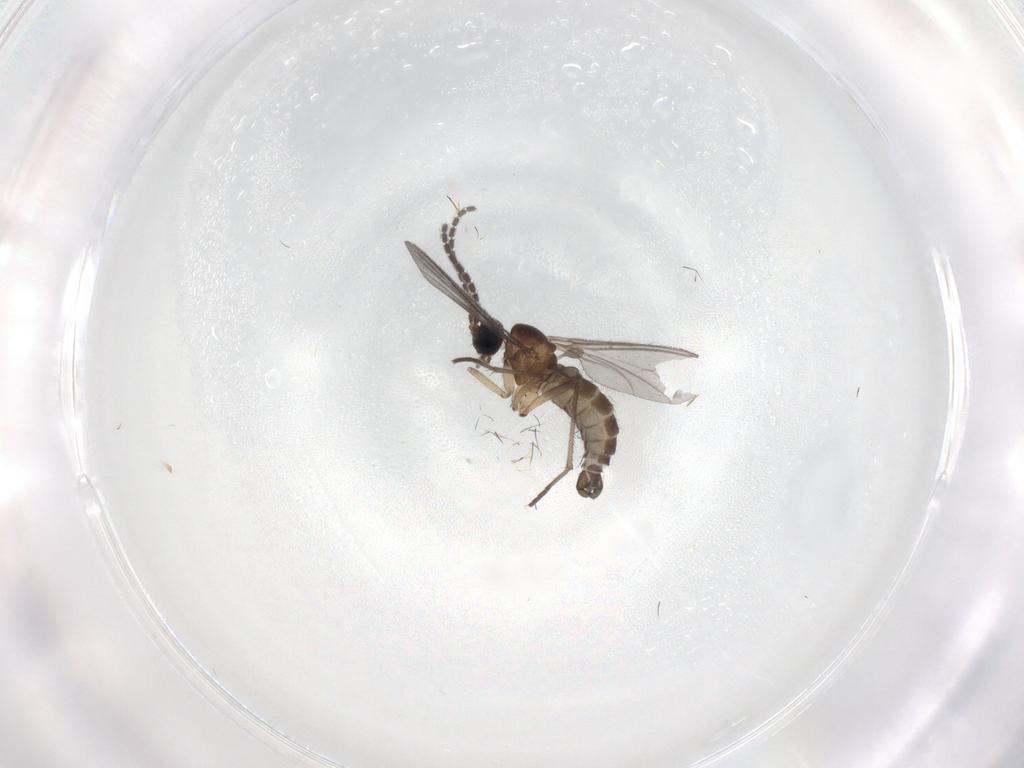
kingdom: Animalia
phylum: Arthropoda
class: Insecta
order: Diptera
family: Sciaridae
